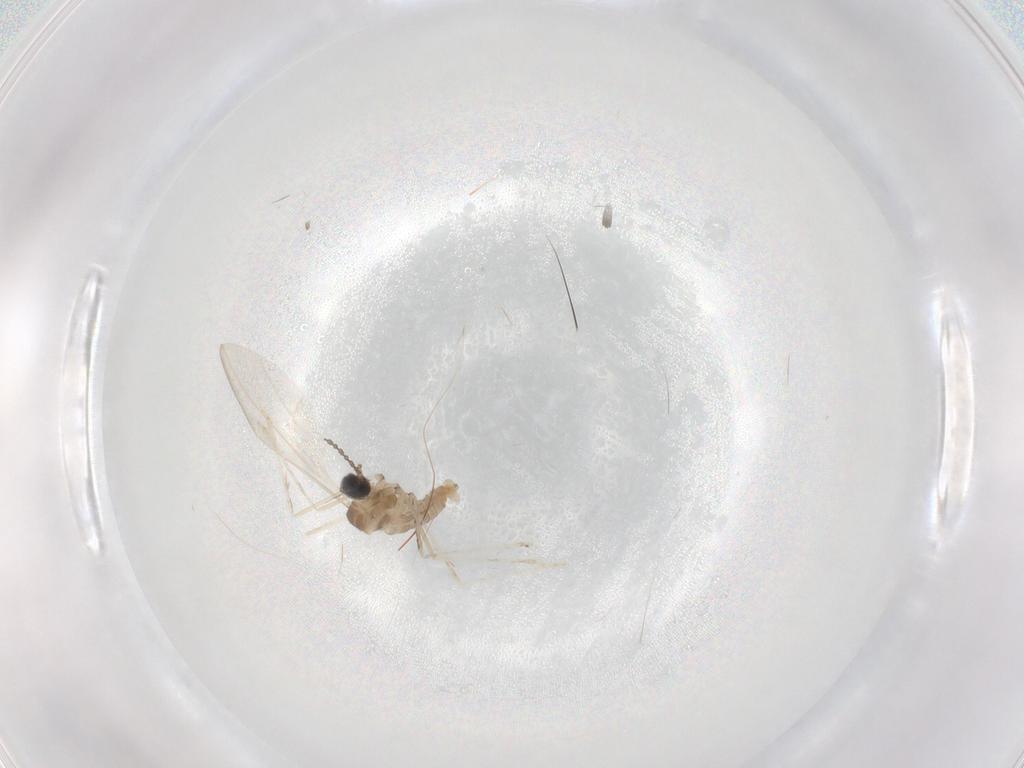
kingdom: Animalia
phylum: Arthropoda
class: Insecta
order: Diptera
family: Cecidomyiidae
